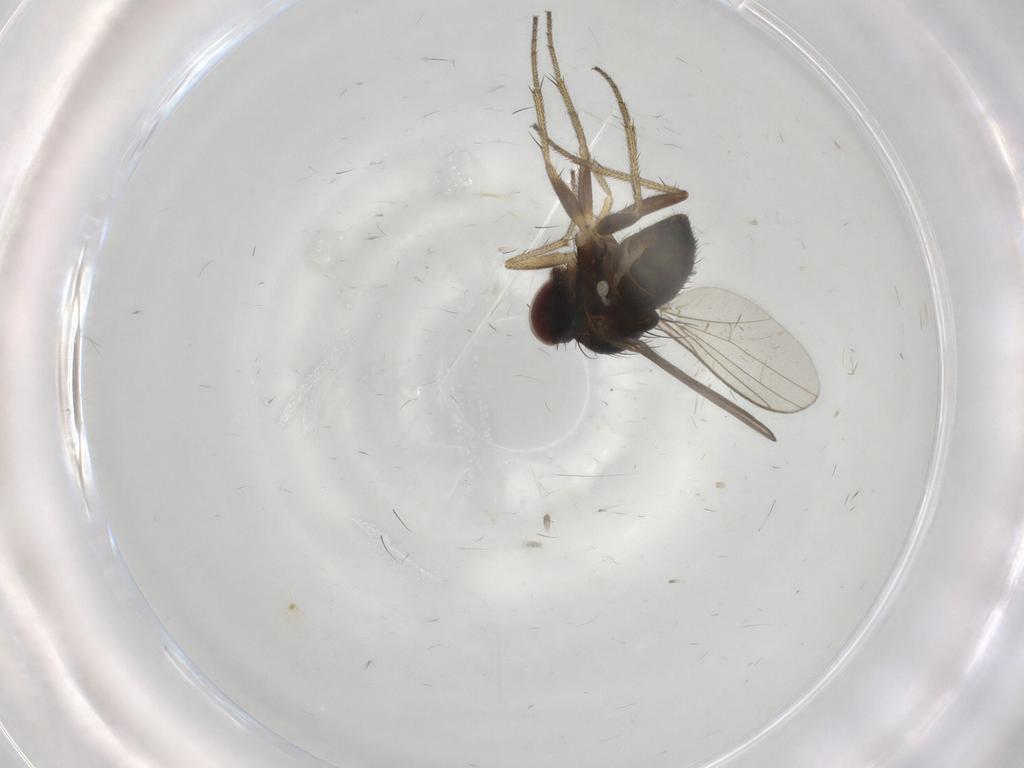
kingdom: Animalia
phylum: Arthropoda
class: Insecta
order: Diptera
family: Dolichopodidae
